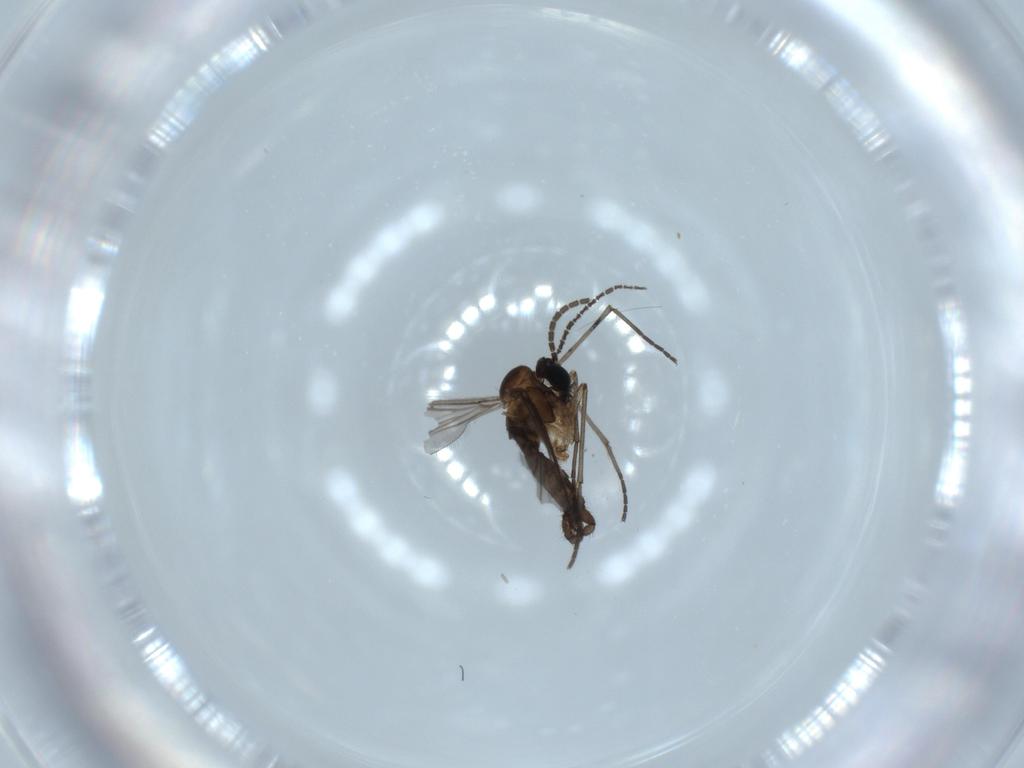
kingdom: Animalia
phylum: Arthropoda
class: Insecta
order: Diptera
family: Sciaridae
